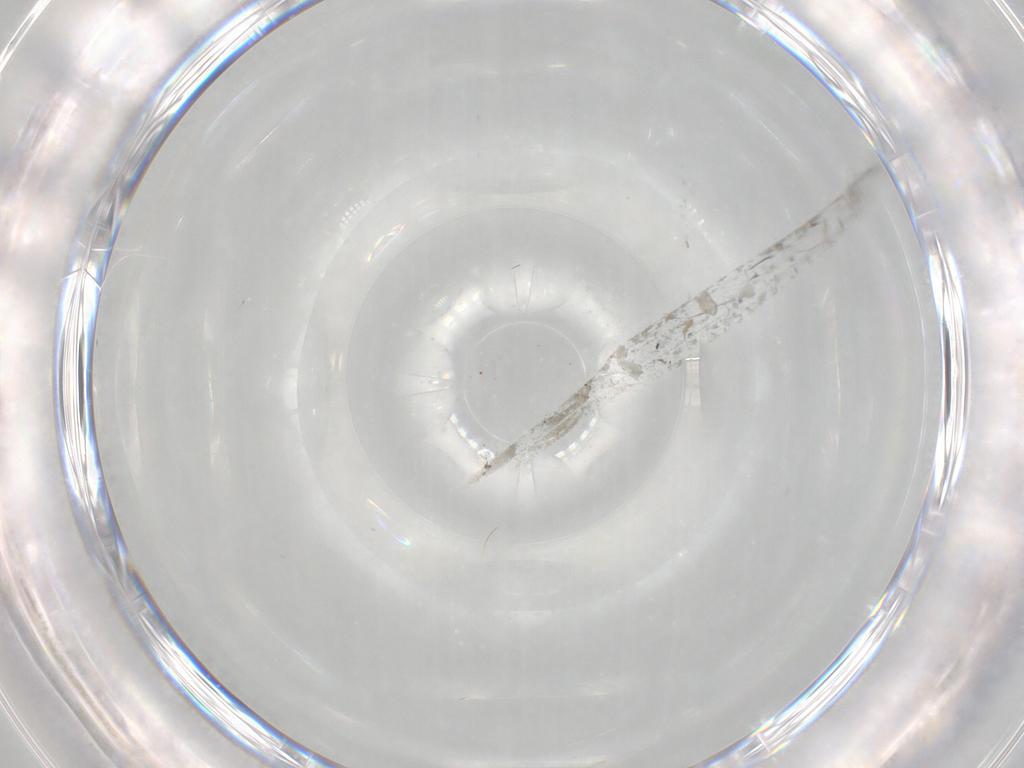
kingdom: Animalia
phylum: Arthropoda
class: Insecta
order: Diptera
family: Chironomidae
